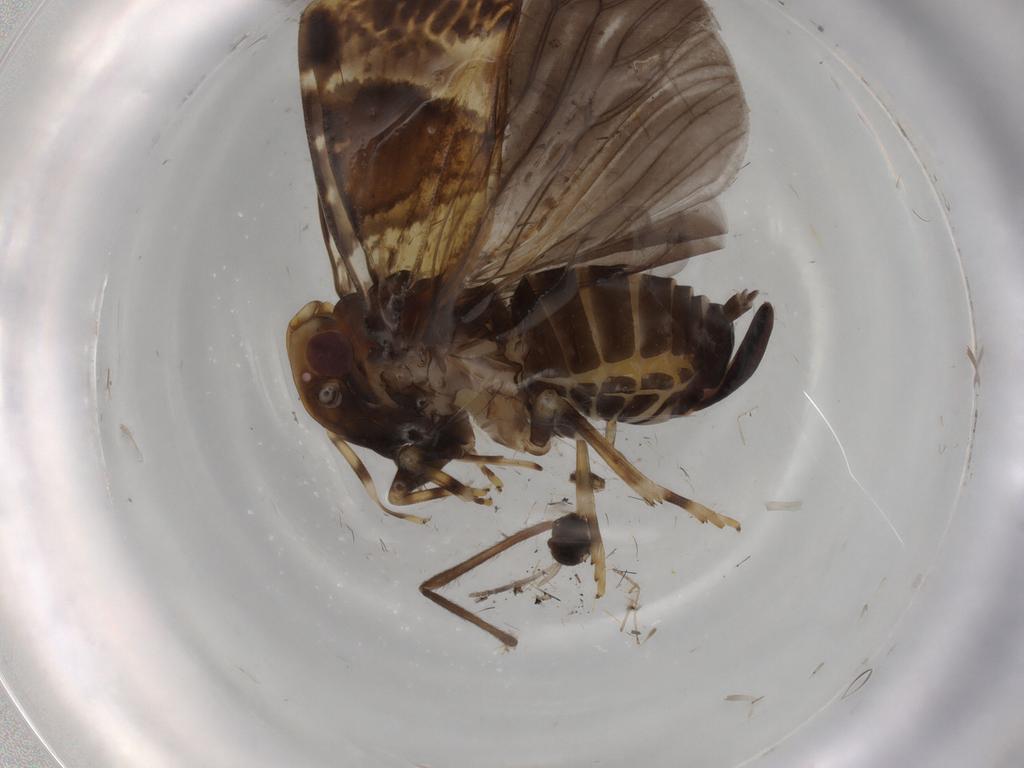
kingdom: Animalia
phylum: Arthropoda
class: Insecta
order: Hemiptera
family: Cixiidae
